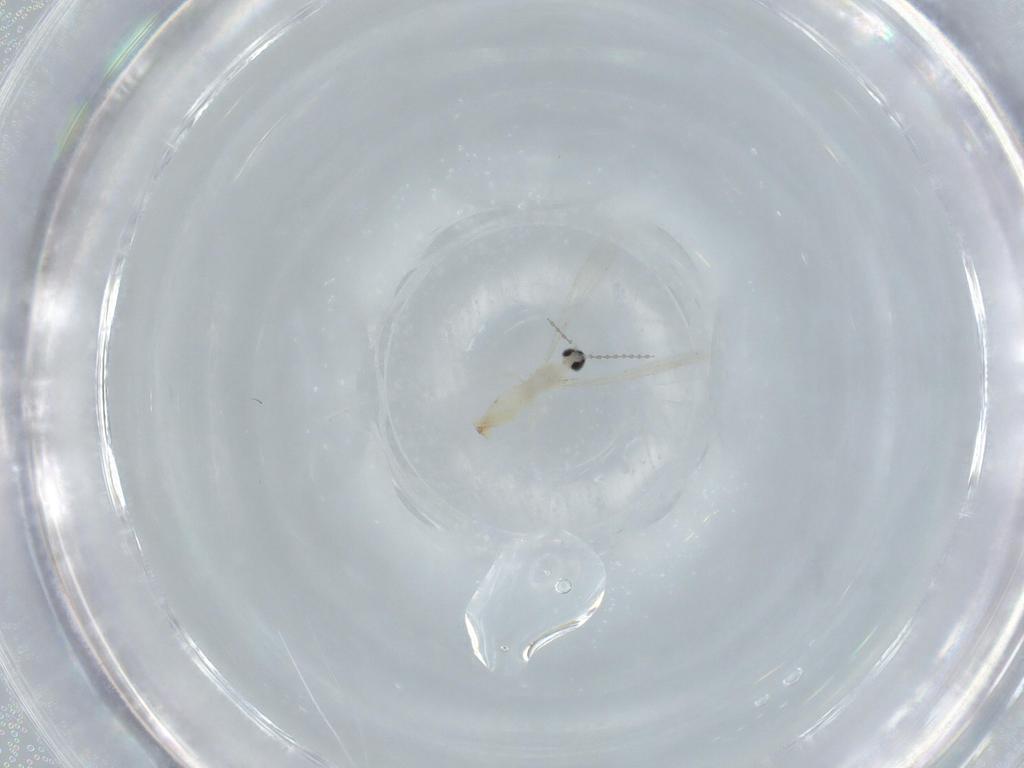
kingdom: Animalia
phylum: Arthropoda
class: Insecta
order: Diptera
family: Cecidomyiidae
